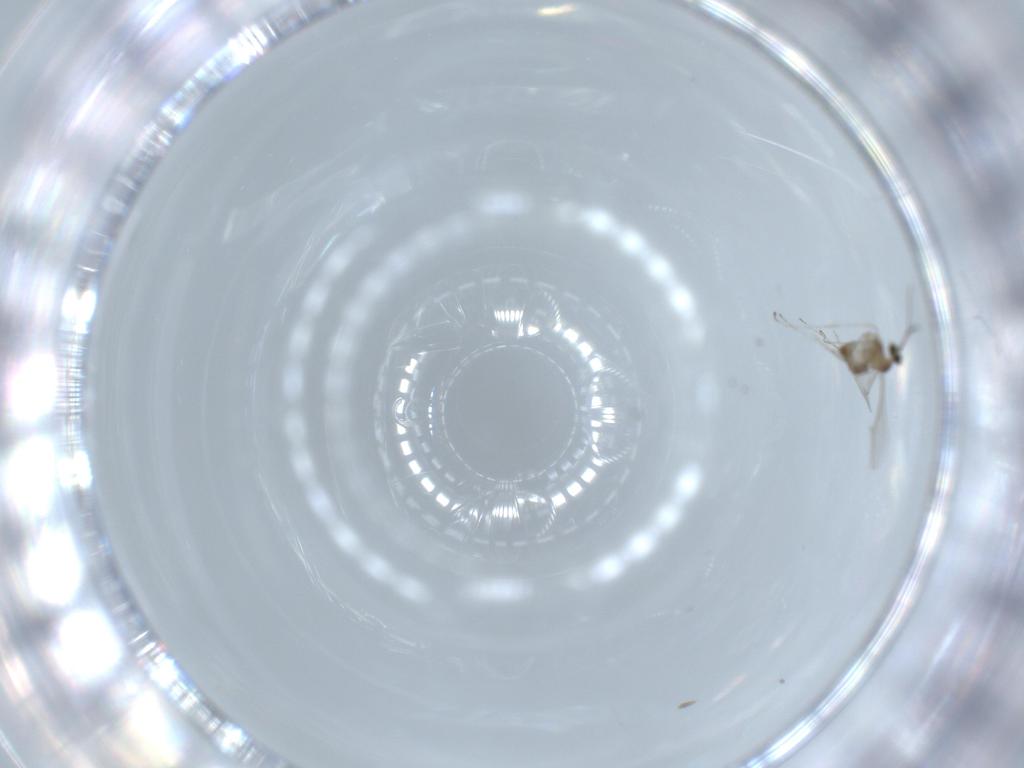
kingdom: Animalia
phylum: Arthropoda
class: Insecta
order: Diptera
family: Cecidomyiidae
